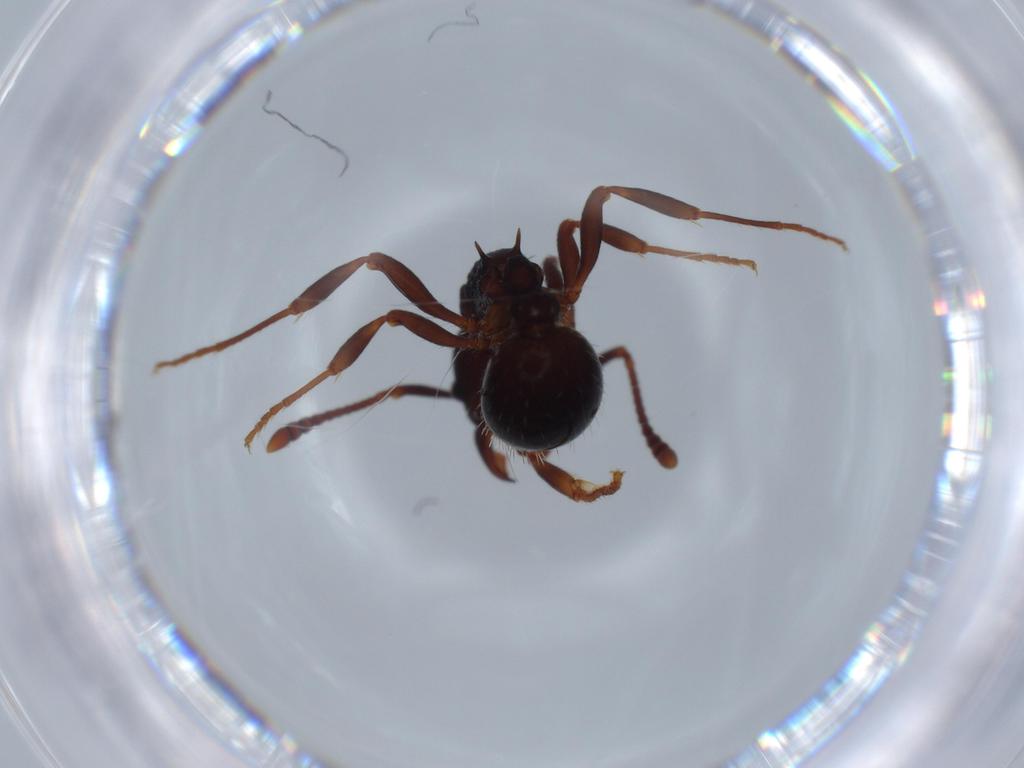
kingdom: Animalia
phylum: Arthropoda
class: Insecta
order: Hymenoptera
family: Formicidae
